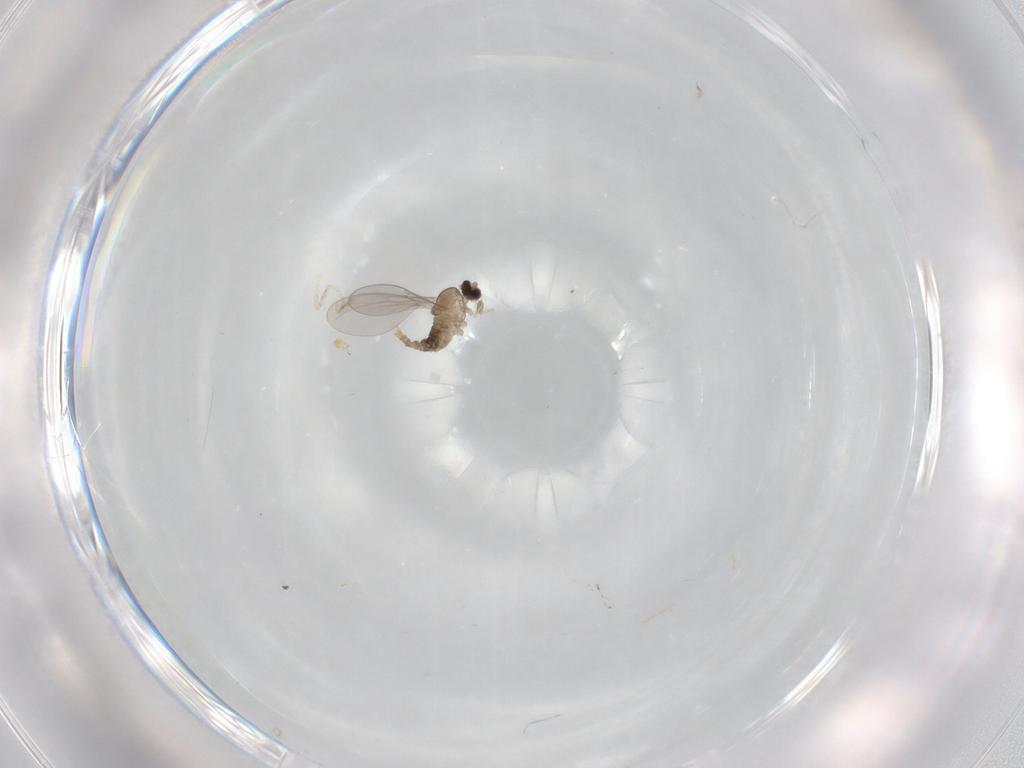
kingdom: Animalia
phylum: Arthropoda
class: Insecta
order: Diptera
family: Cecidomyiidae
